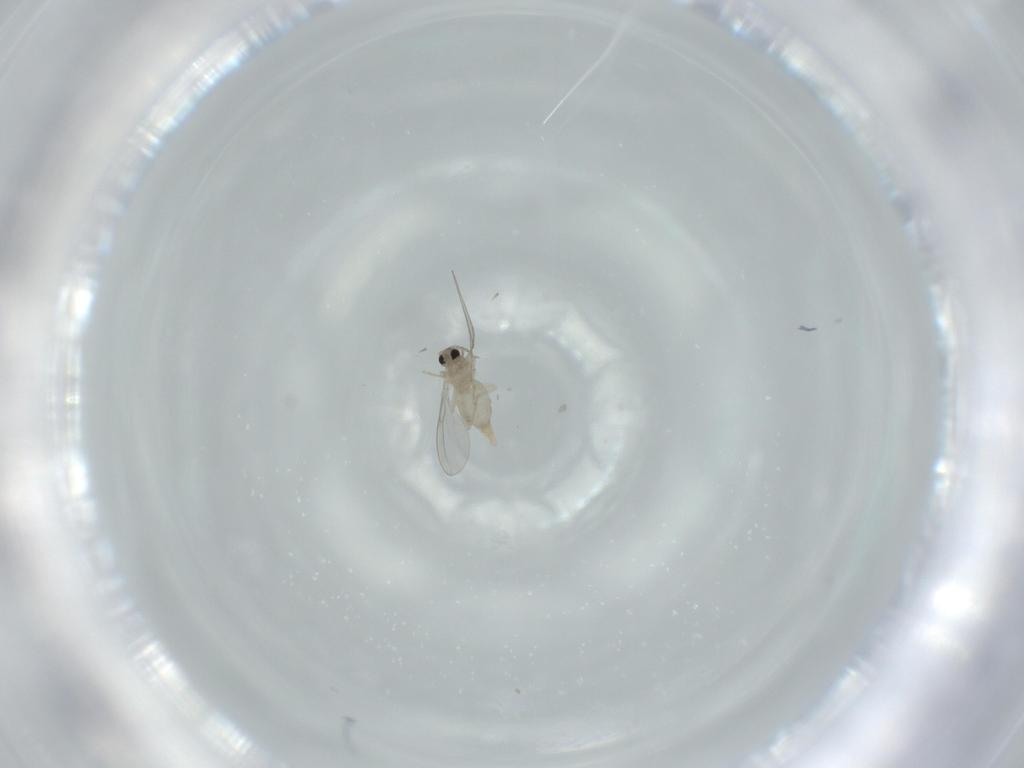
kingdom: Animalia
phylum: Arthropoda
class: Insecta
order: Diptera
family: Cecidomyiidae
